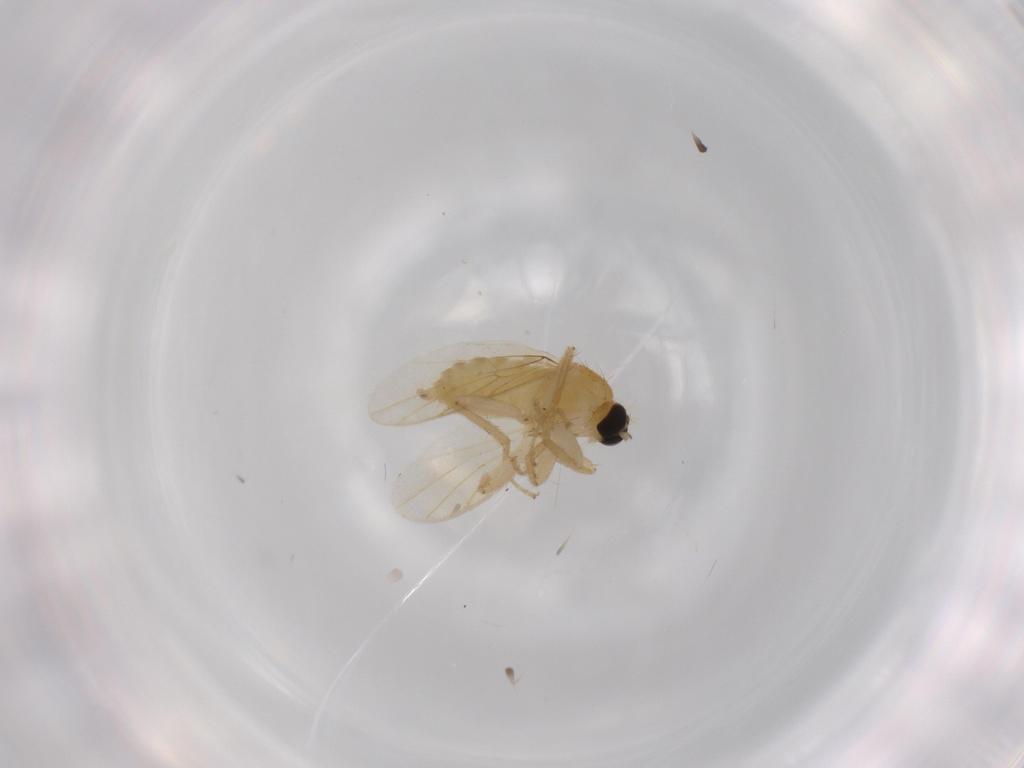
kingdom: Animalia
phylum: Arthropoda
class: Insecta
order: Diptera
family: Hybotidae
